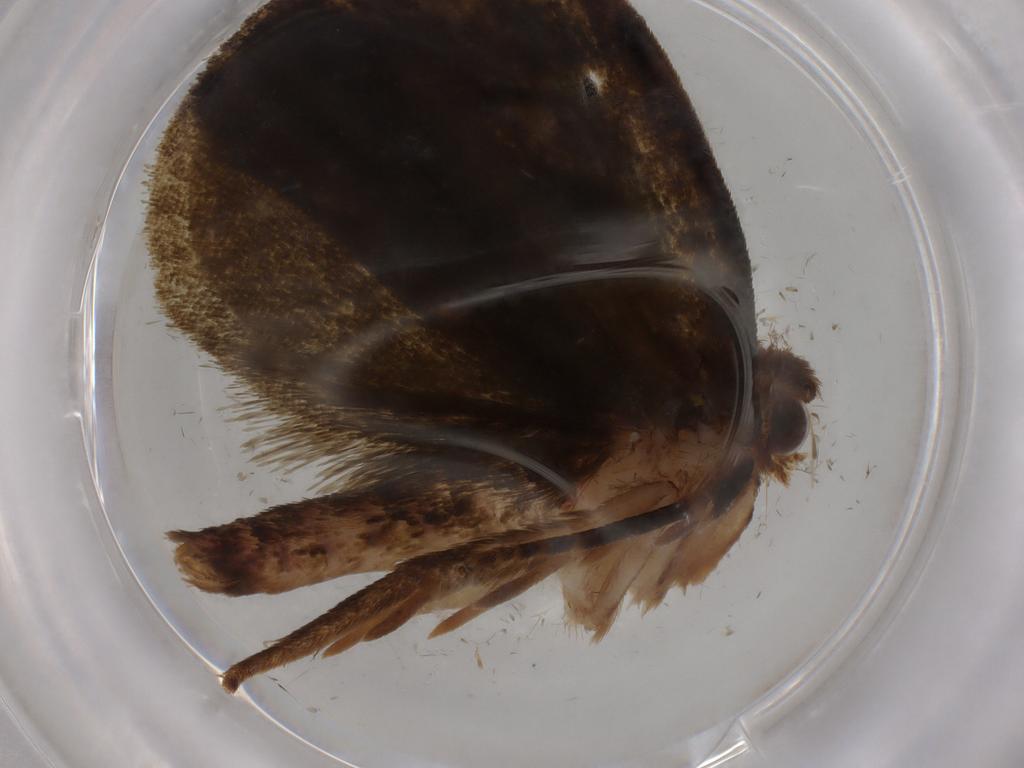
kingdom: Animalia
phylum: Arthropoda
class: Insecta
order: Lepidoptera
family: Geometridae
